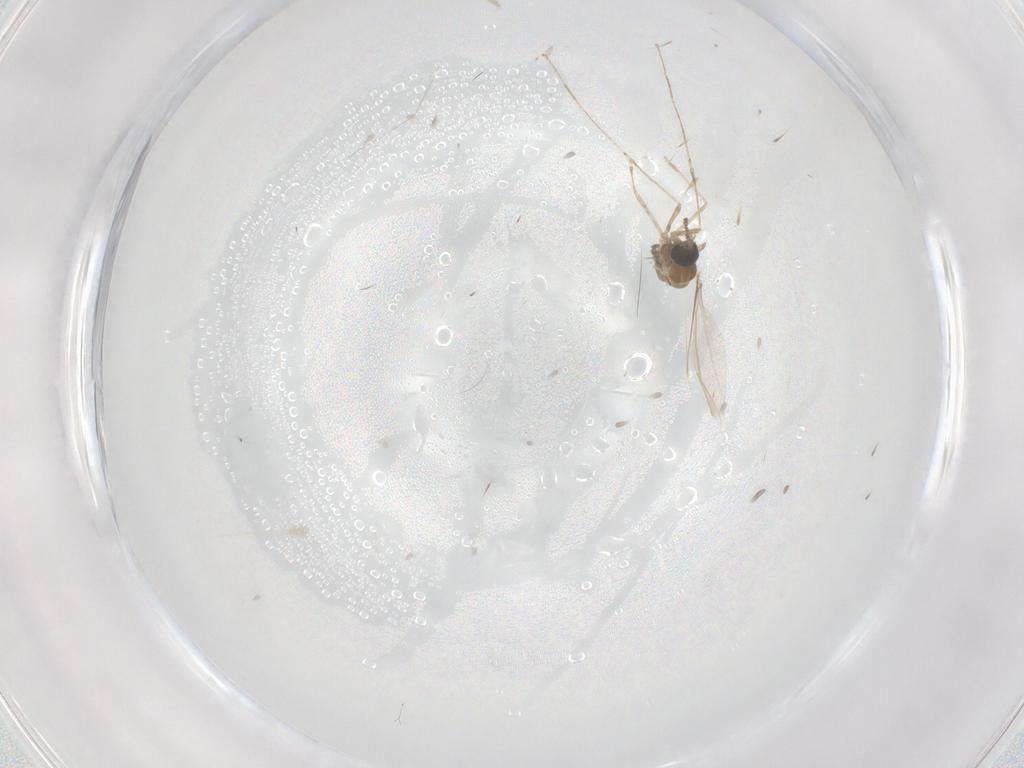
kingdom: Animalia
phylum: Arthropoda
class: Insecta
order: Diptera
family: Cecidomyiidae
